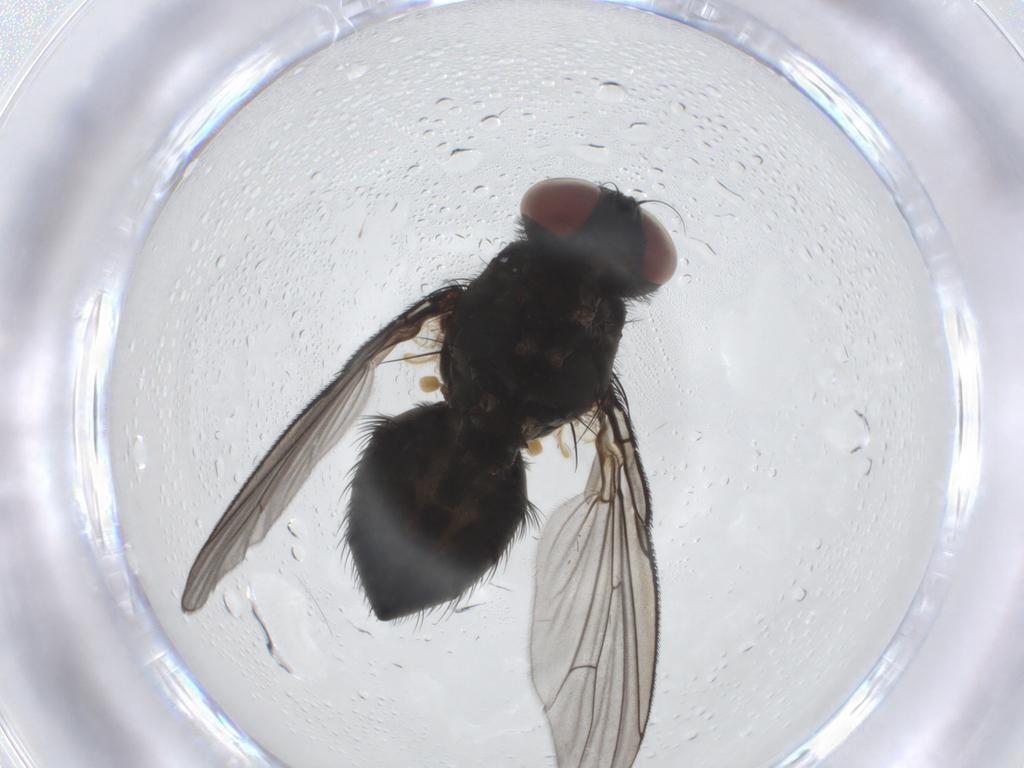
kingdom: Animalia
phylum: Arthropoda
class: Insecta
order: Diptera
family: Muscidae
